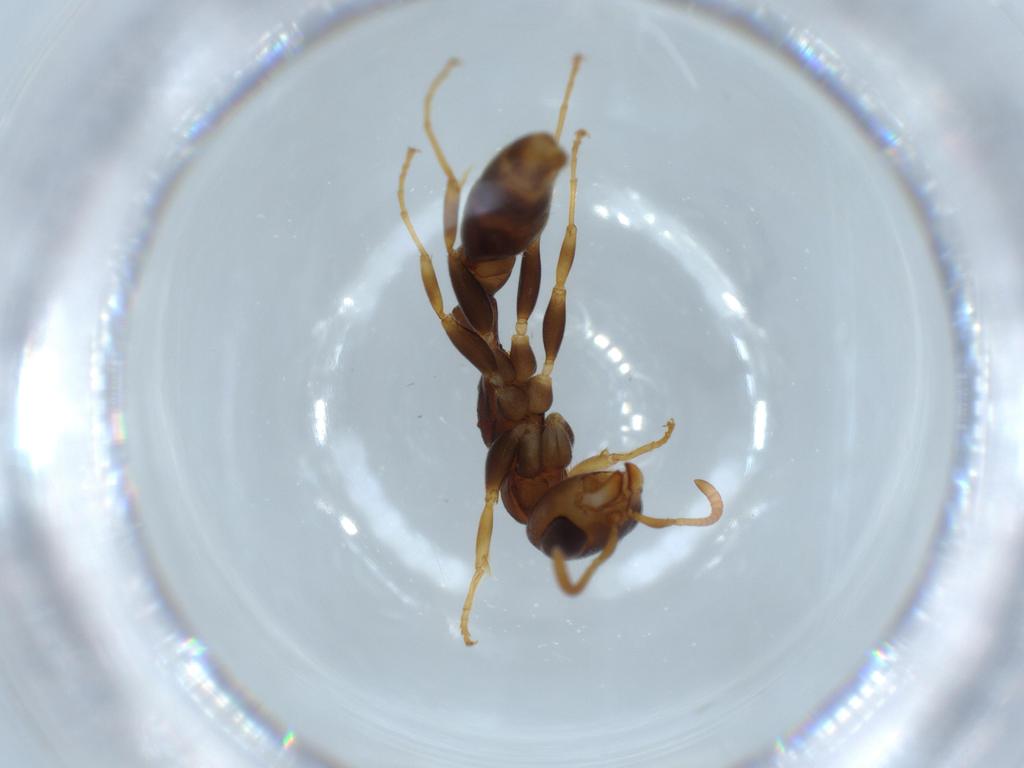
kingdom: Animalia
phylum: Arthropoda
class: Insecta
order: Hymenoptera
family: Formicidae
